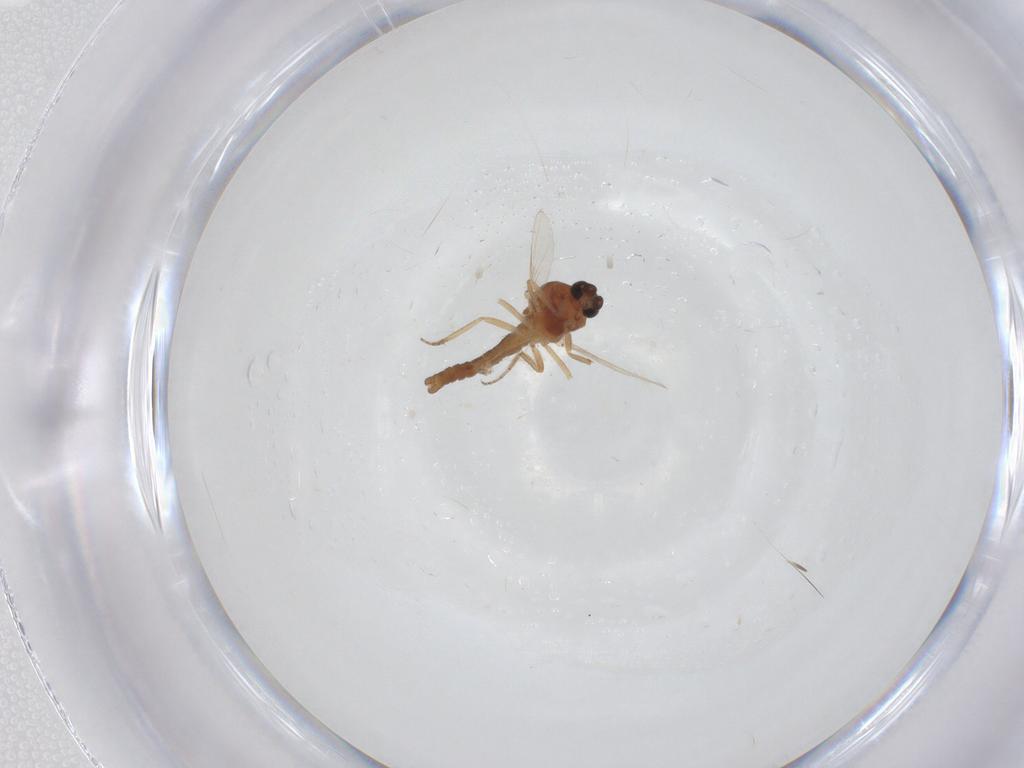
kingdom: Animalia
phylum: Arthropoda
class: Insecta
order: Diptera
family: Ceratopogonidae
